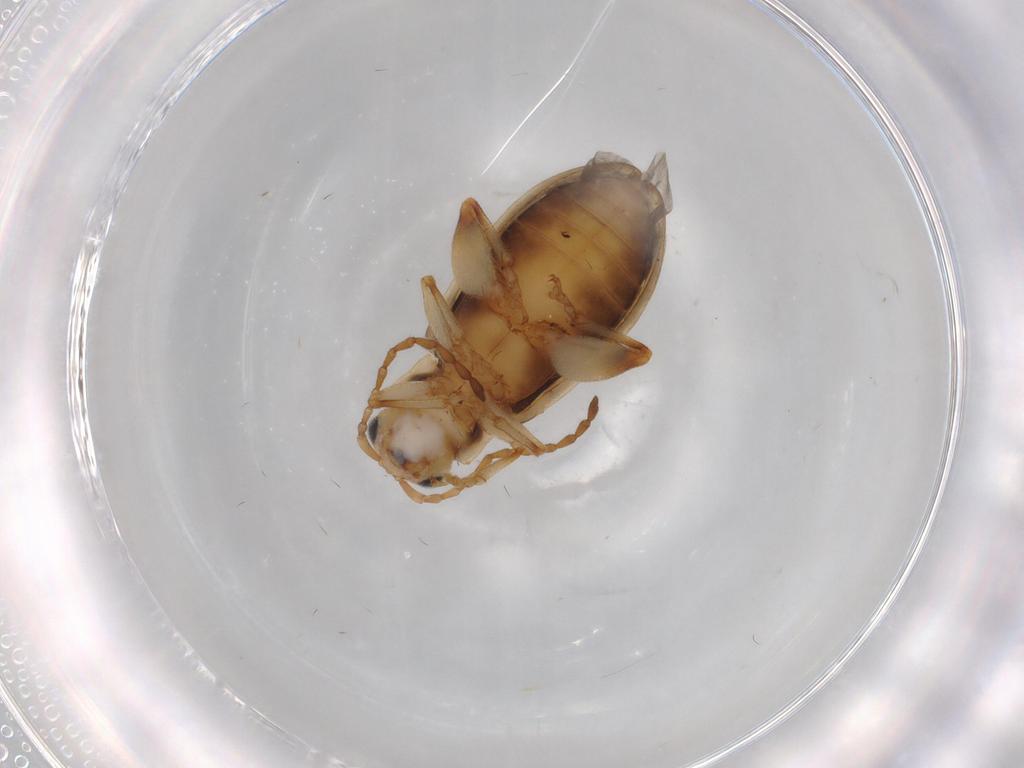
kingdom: Animalia
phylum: Arthropoda
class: Insecta
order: Coleoptera
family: Chrysomelidae
